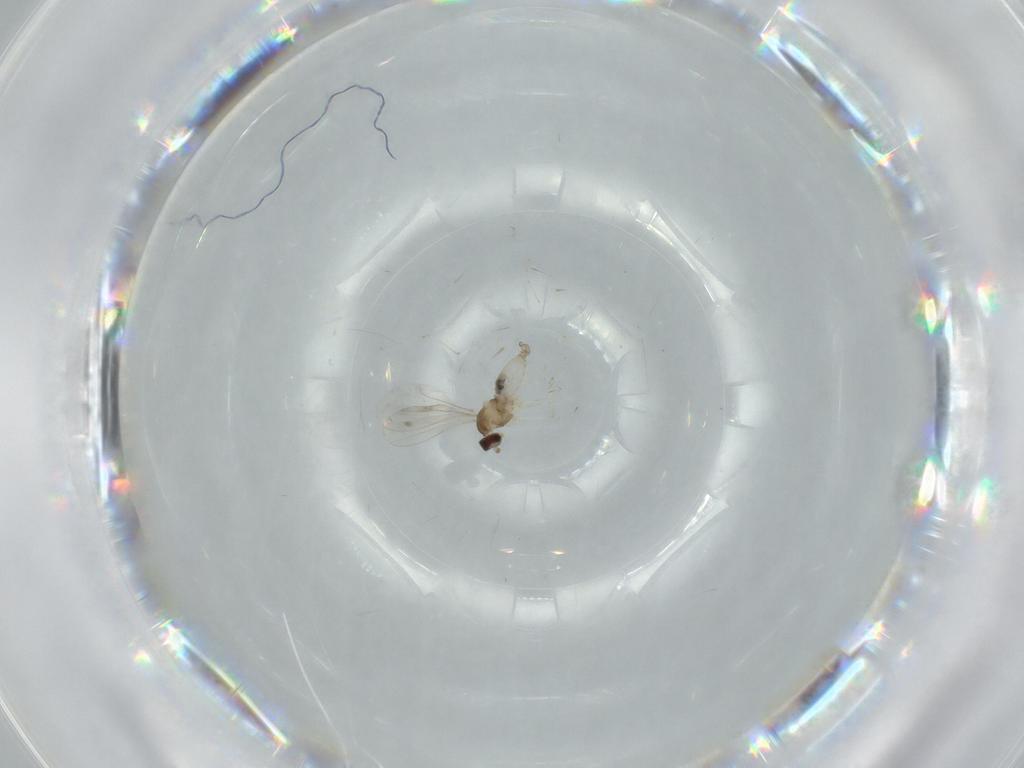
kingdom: Animalia
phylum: Arthropoda
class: Insecta
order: Diptera
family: Cecidomyiidae
